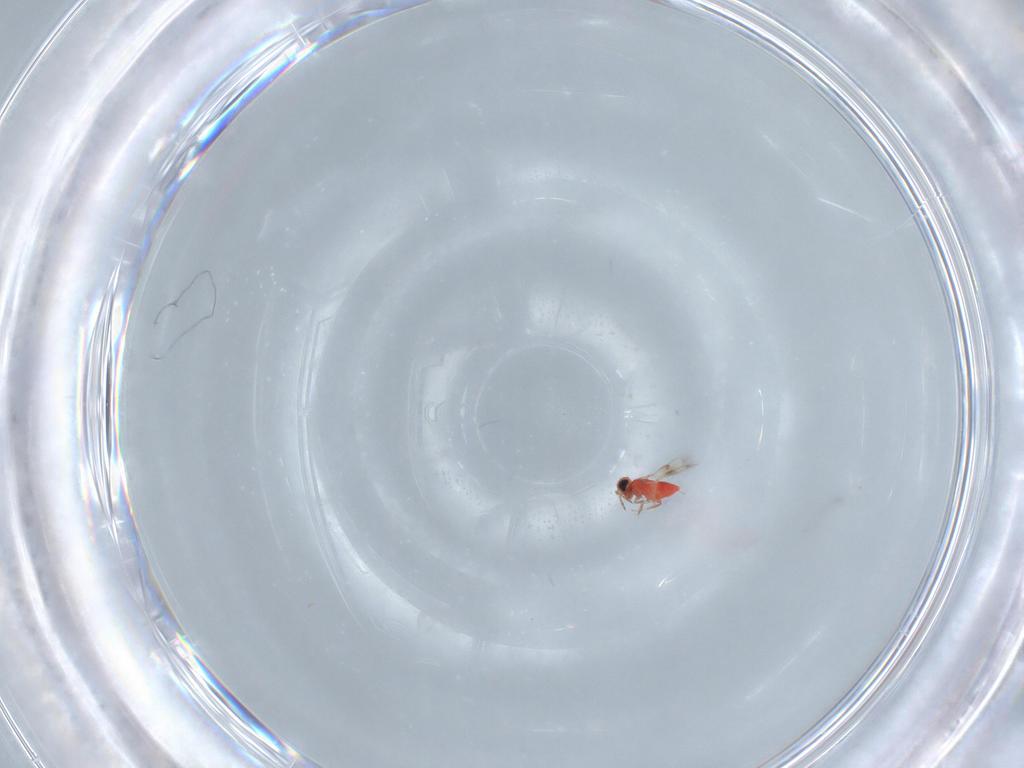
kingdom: Animalia
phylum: Arthropoda
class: Insecta
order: Hymenoptera
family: Trichogrammatidae
